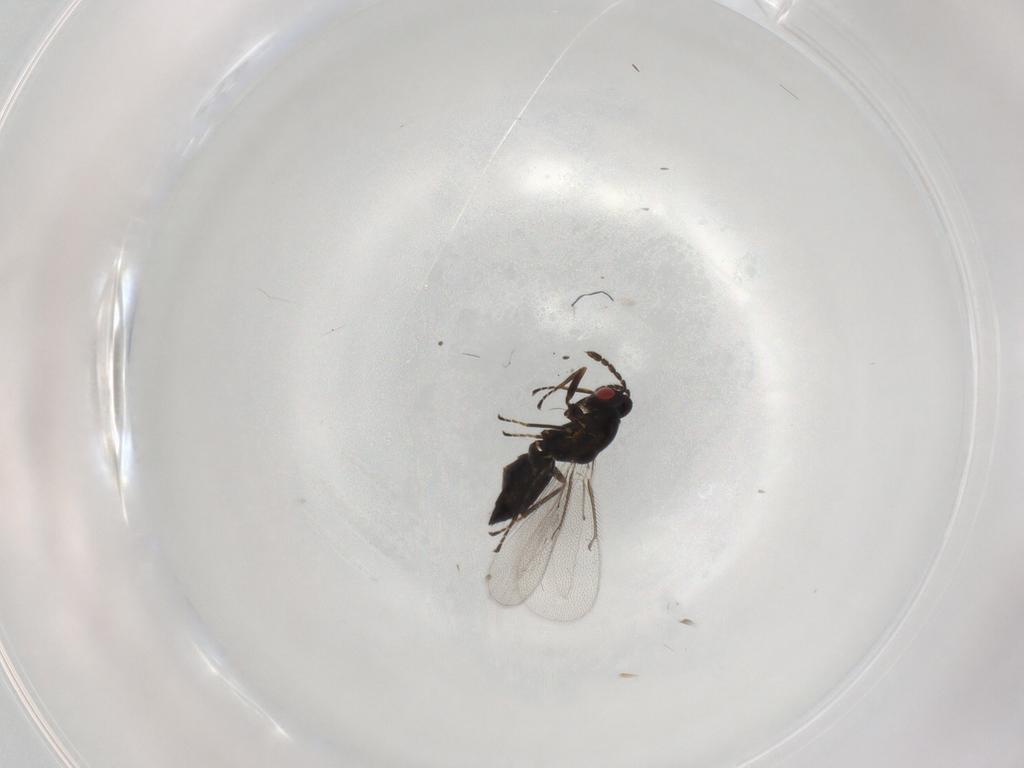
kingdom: Animalia
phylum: Arthropoda
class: Insecta
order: Hymenoptera
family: Eulophidae
